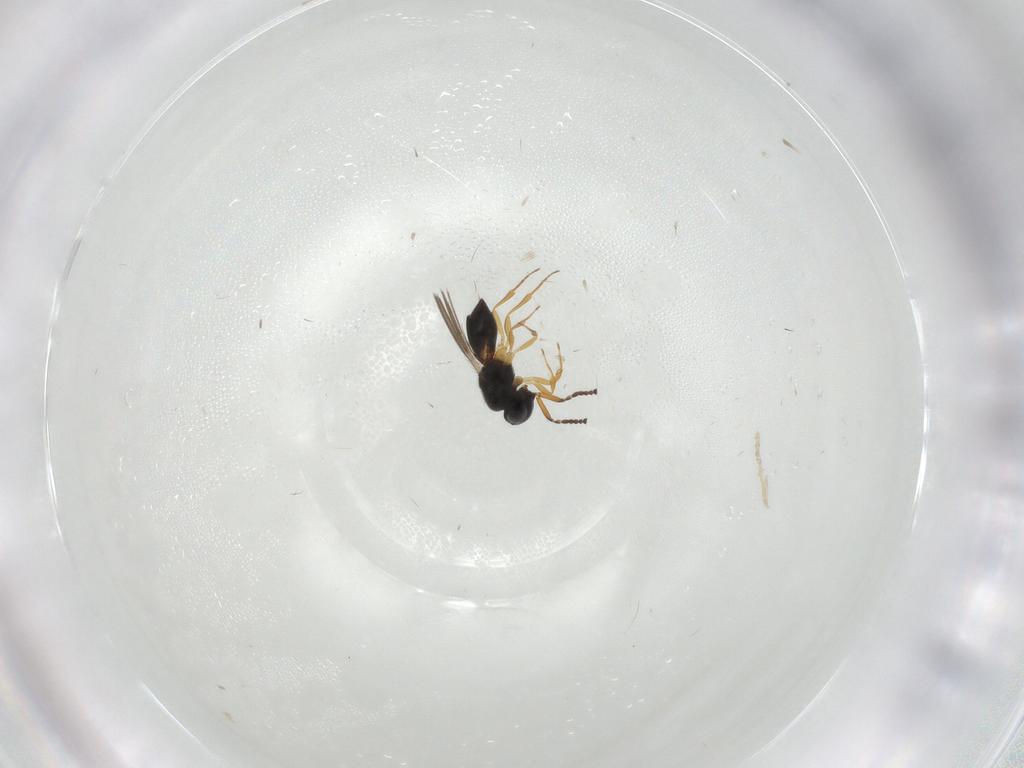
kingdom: Animalia
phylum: Arthropoda
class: Insecta
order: Hymenoptera
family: Scelionidae
